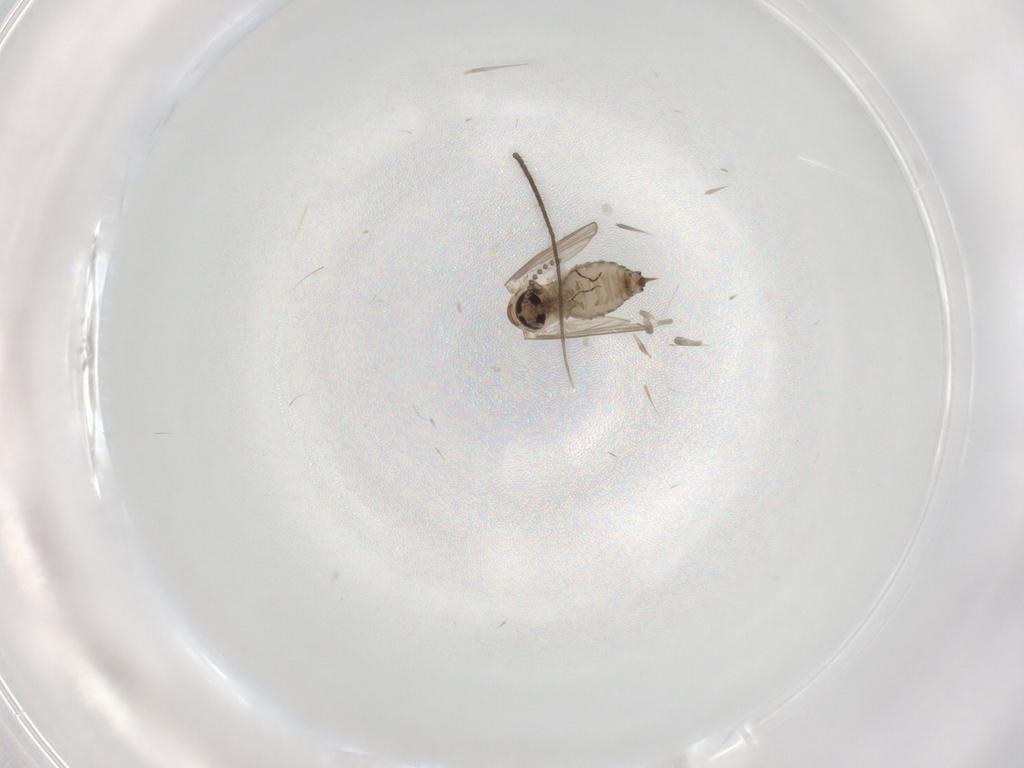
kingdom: Animalia
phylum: Arthropoda
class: Insecta
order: Diptera
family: Ceratopogonidae
